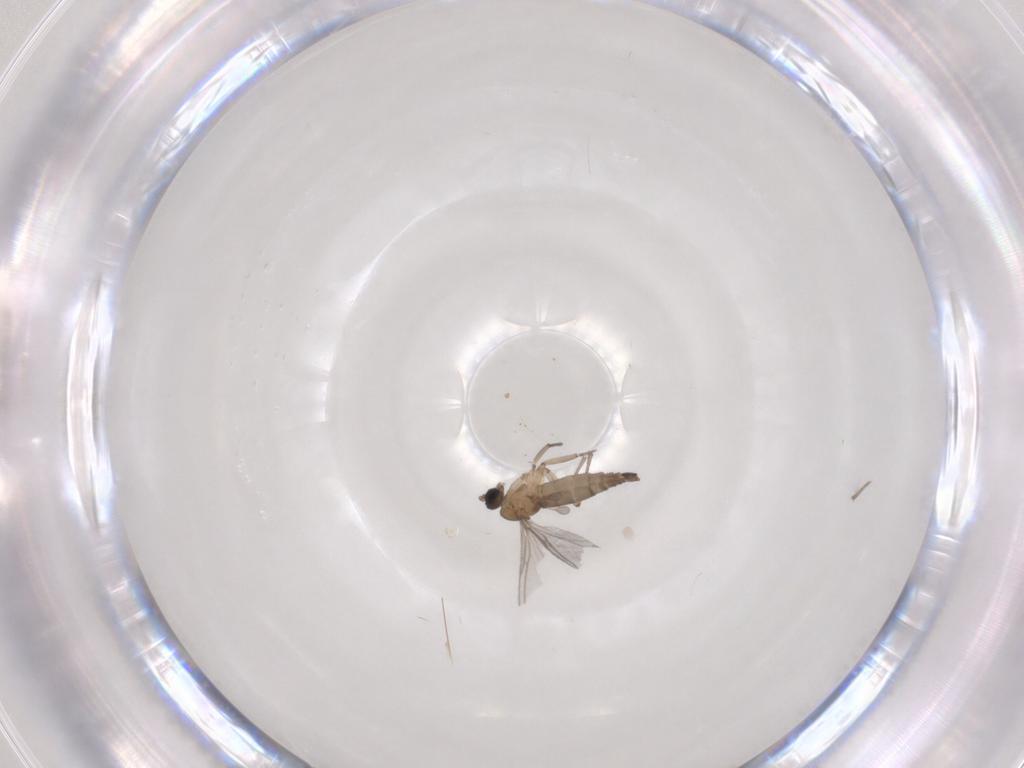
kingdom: Animalia
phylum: Arthropoda
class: Insecta
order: Diptera
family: Sciaridae
